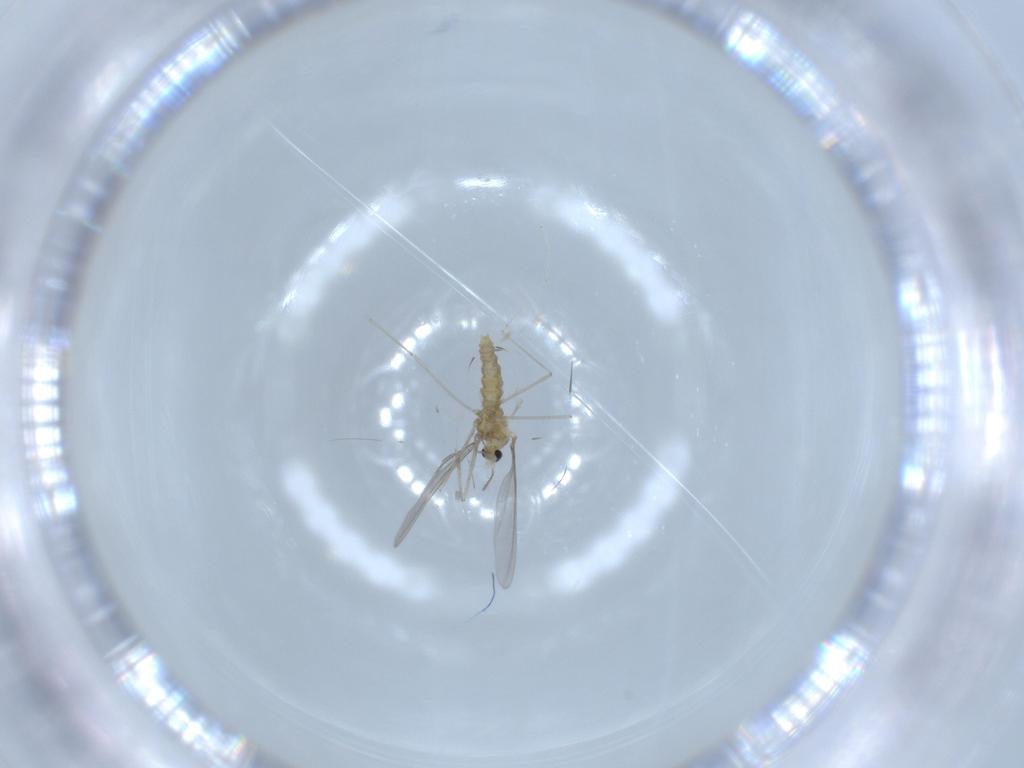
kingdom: Animalia
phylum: Arthropoda
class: Insecta
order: Diptera
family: Cecidomyiidae
